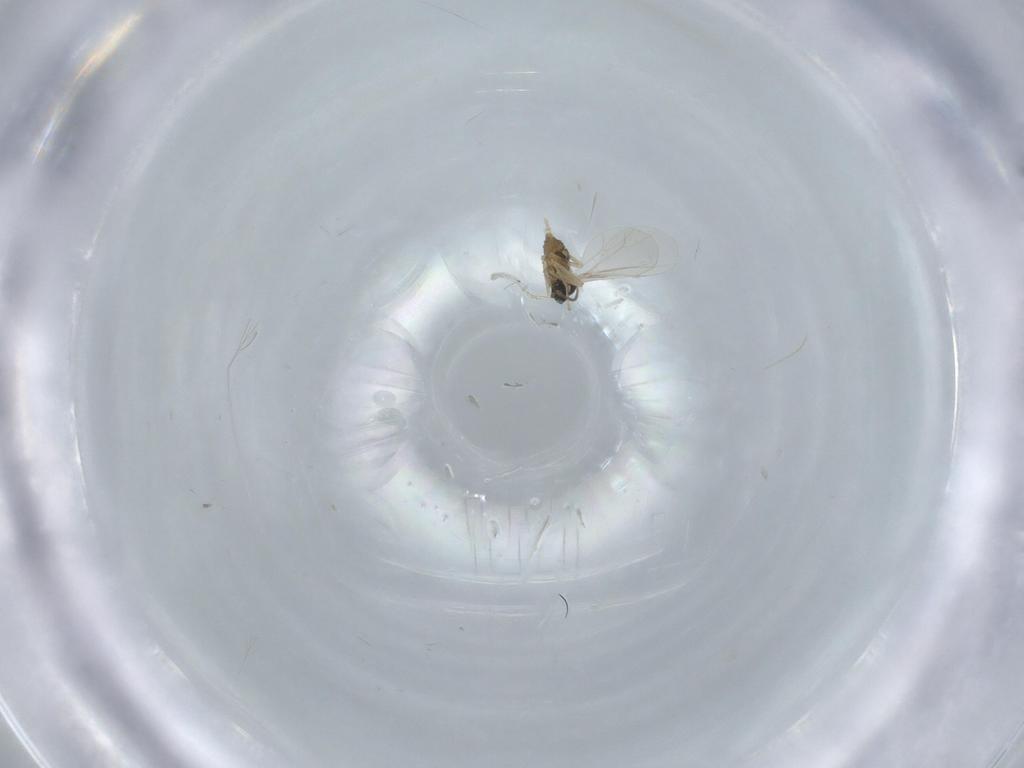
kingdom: Animalia
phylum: Arthropoda
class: Insecta
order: Diptera
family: Cecidomyiidae
